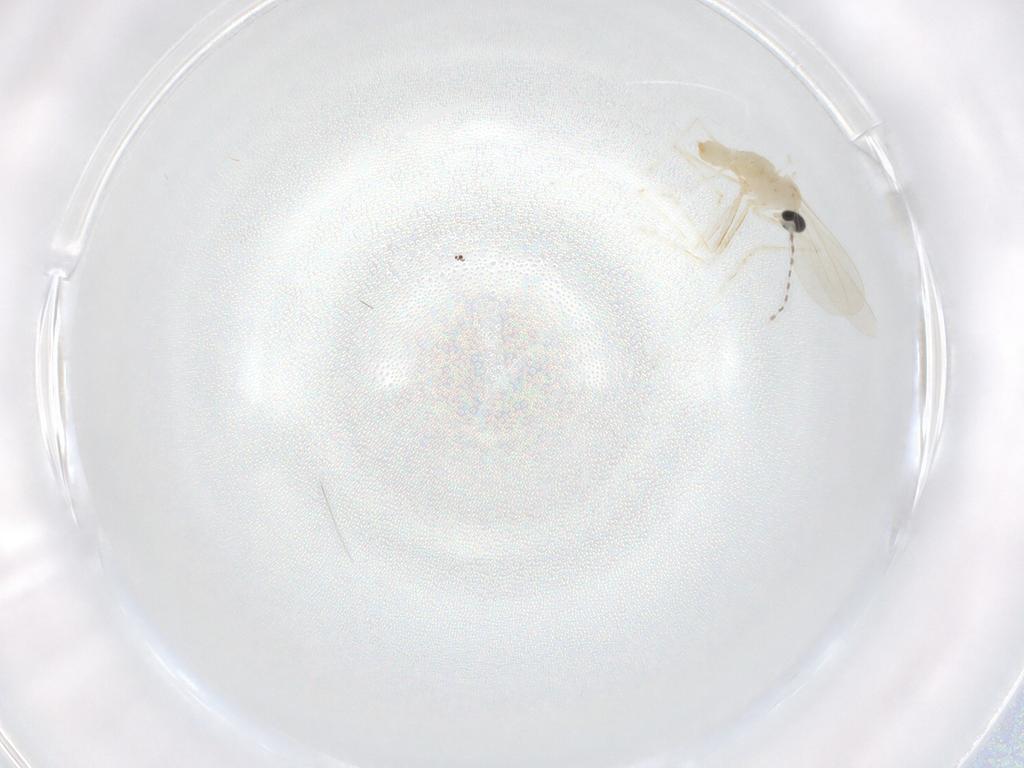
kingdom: Animalia
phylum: Arthropoda
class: Insecta
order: Diptera
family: Cecidomyiidae
